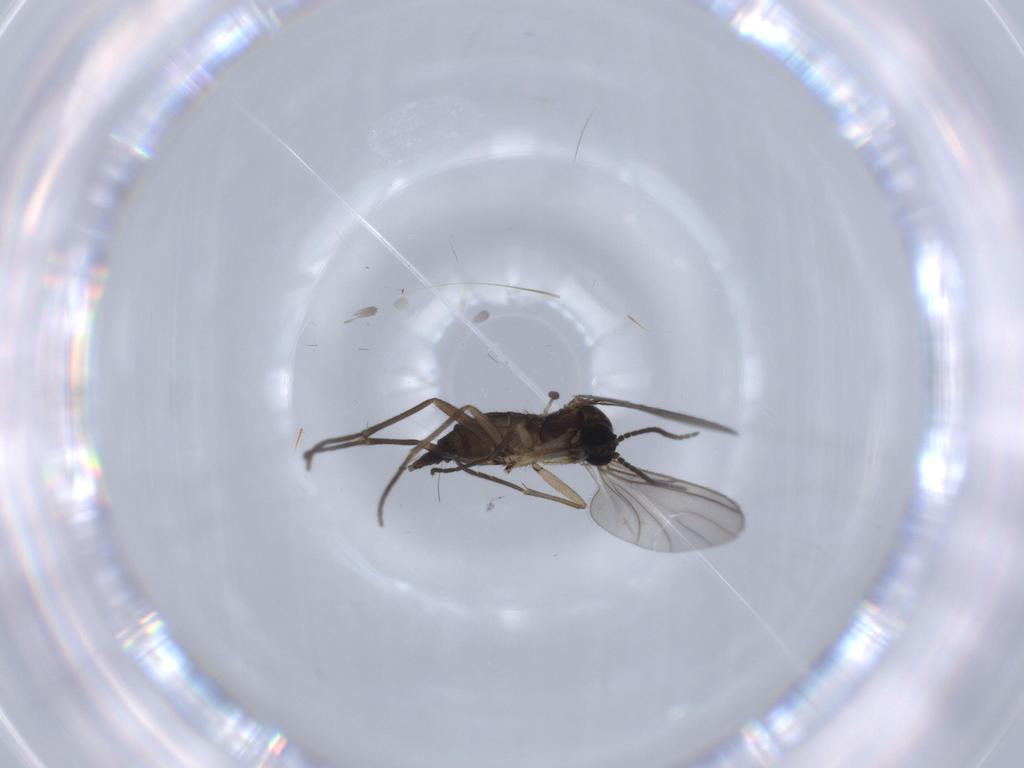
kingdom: Animalia
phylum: Arthropoda
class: Insecta
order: Diptera
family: Sciaridae
